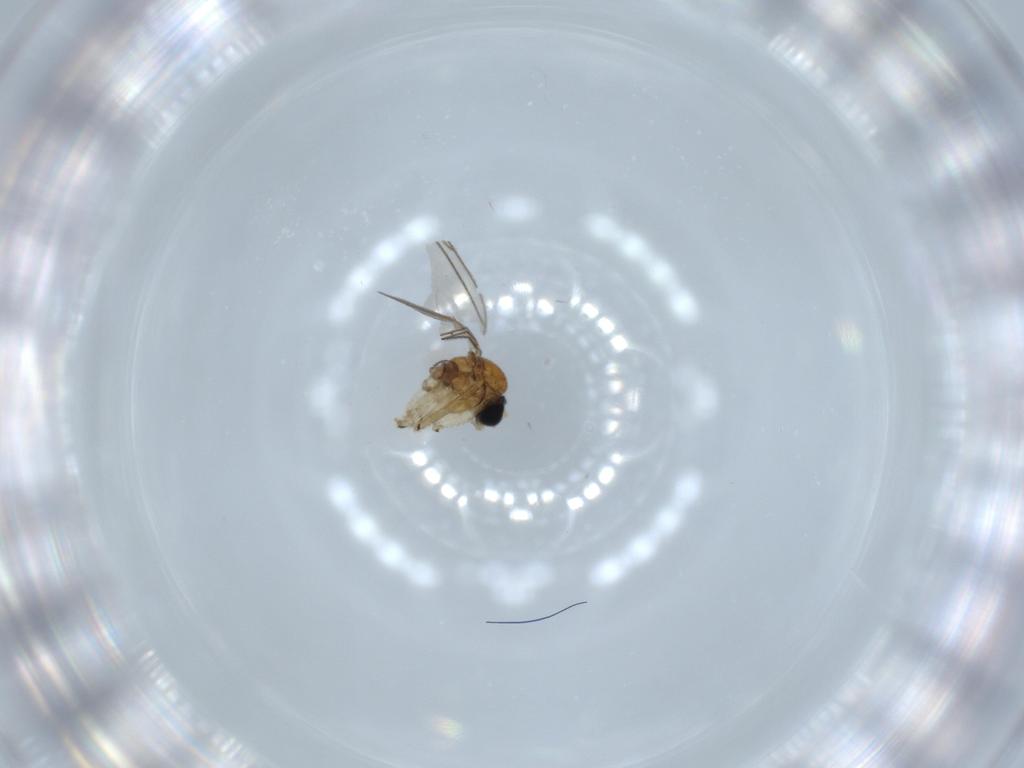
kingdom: Animalia
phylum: Arthropoda
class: Insecta
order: Diptera
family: Sciaridae
